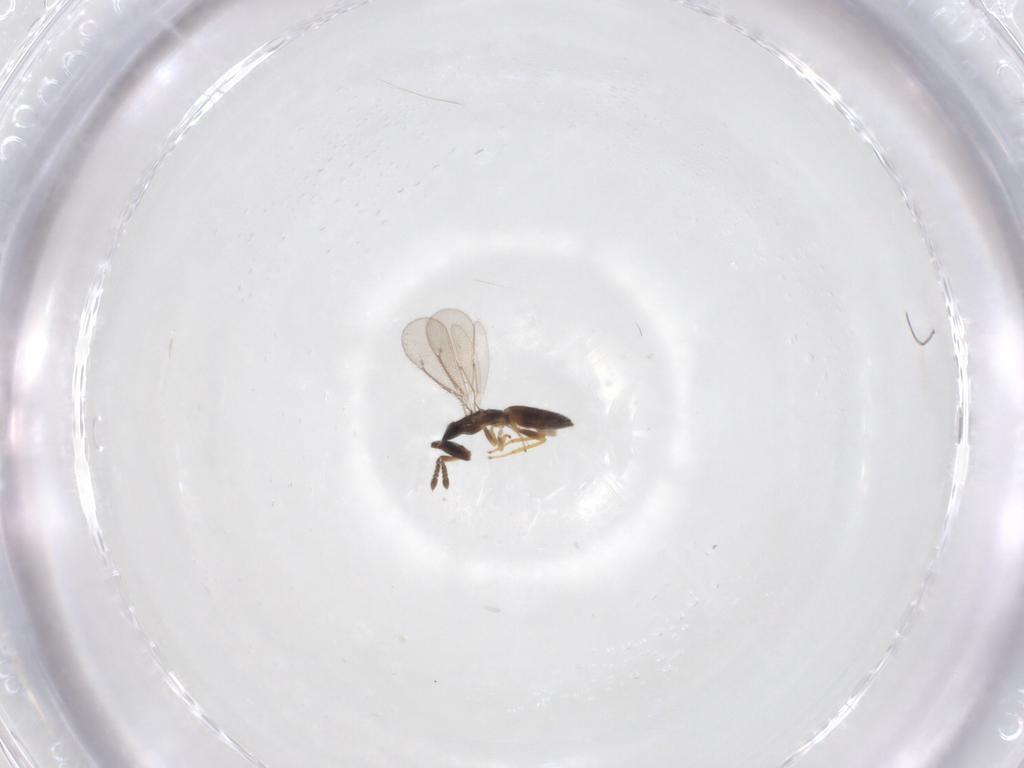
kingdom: Animalia
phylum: Arthropoda
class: Insecta
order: Hymenoptera
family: Eulophidae
